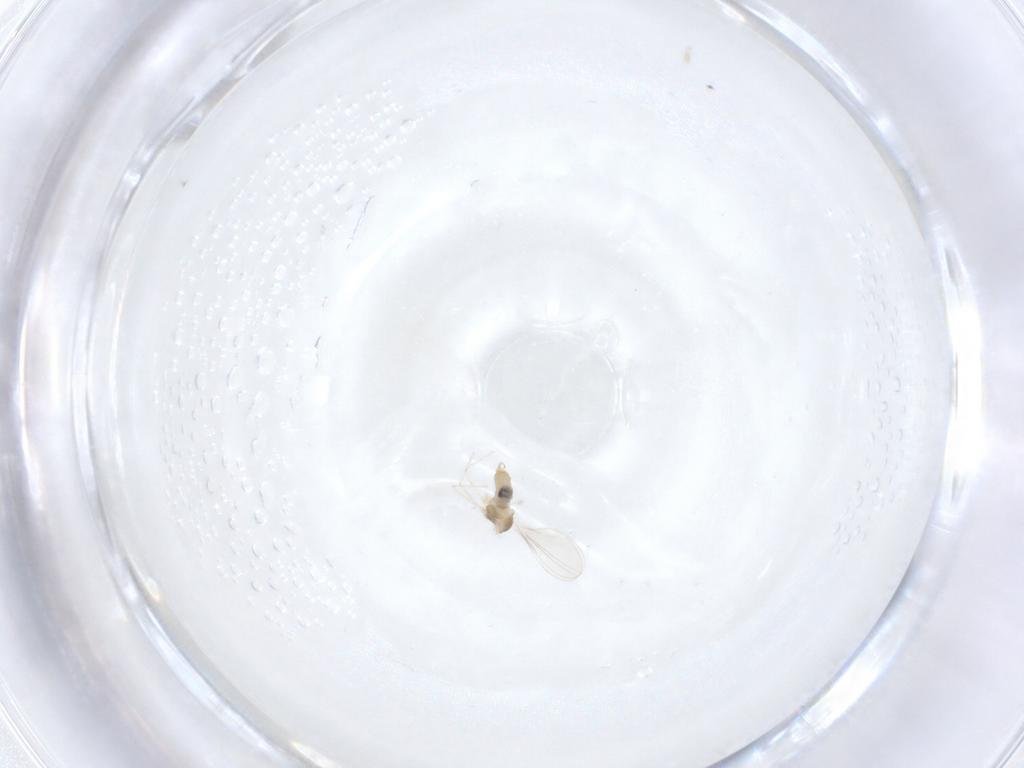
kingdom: Animalia
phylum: Arthropoda
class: Insecta
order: Diptera
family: Cecidomyiidae
